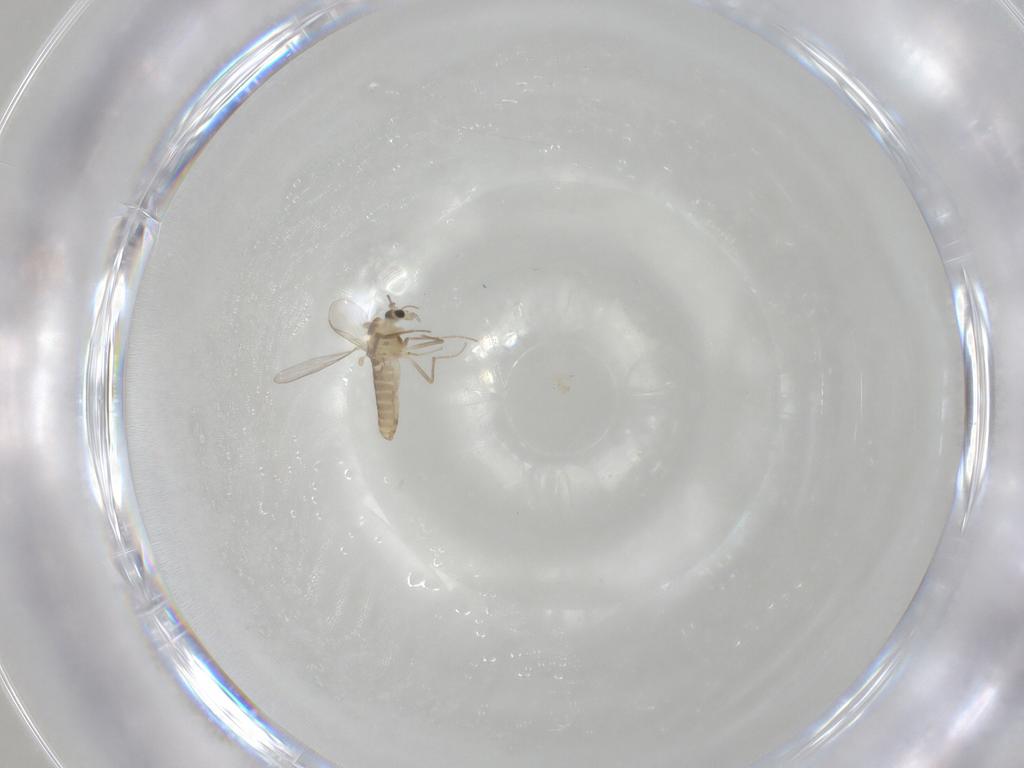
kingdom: Animalia
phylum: Arthropoda
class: Insecta
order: Diptera
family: Chironomidae
